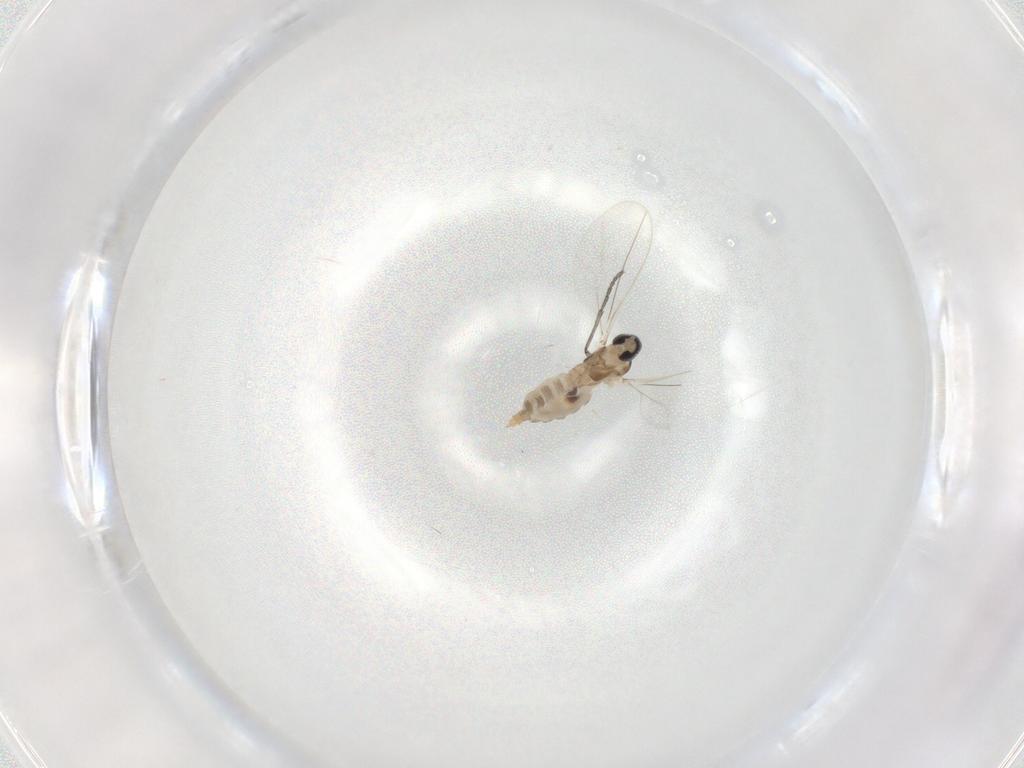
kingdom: Animalia
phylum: Arthropoda
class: Insecta
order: Diptera
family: Cecidomyiidae
